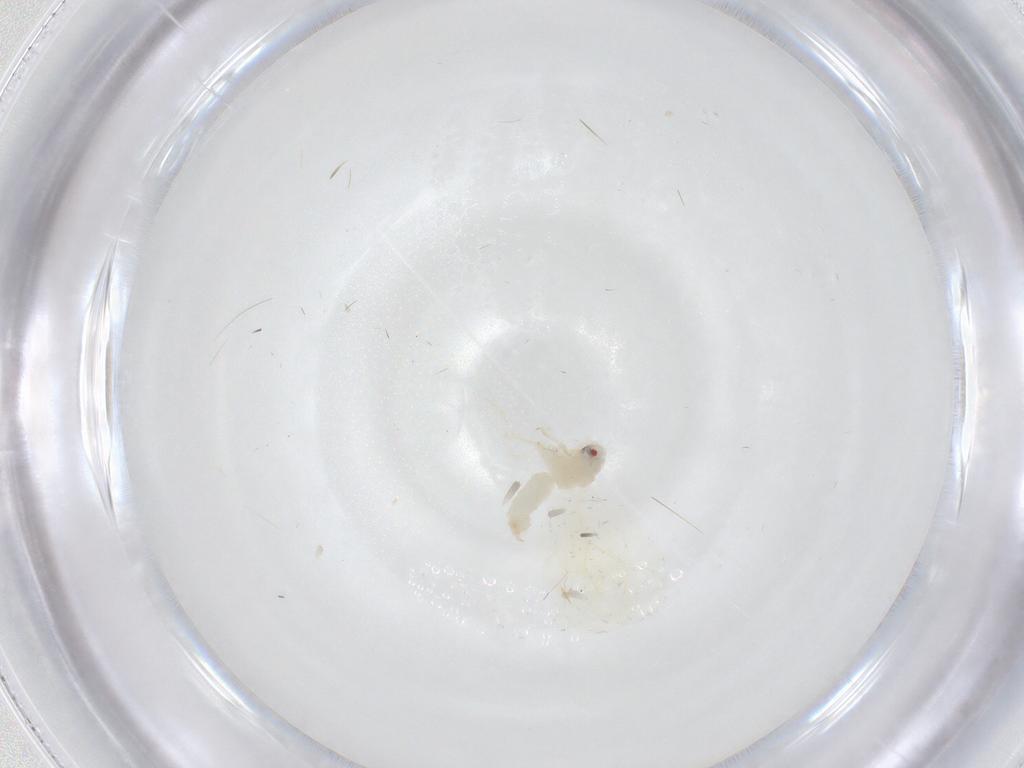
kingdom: Animalia
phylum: Arthropoda
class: Insecta
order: Hemiptera
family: Aleyrodidae
